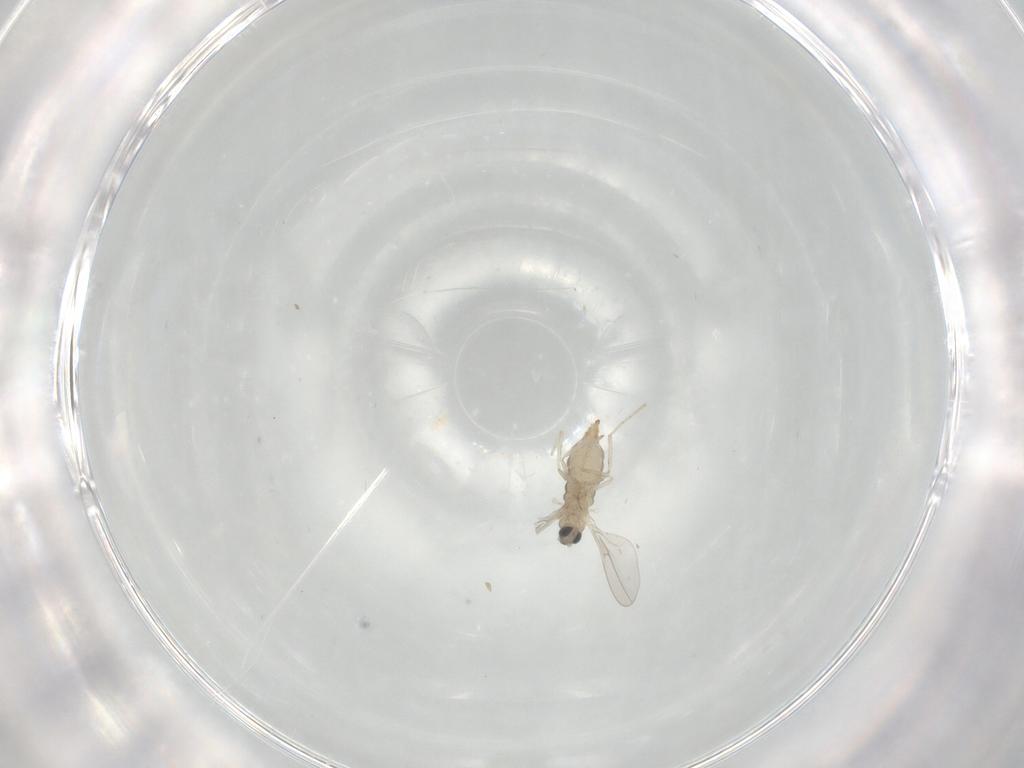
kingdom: Animalia
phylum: Arthropoda
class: Insecta
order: Diptera
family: Cecidomyiidae
